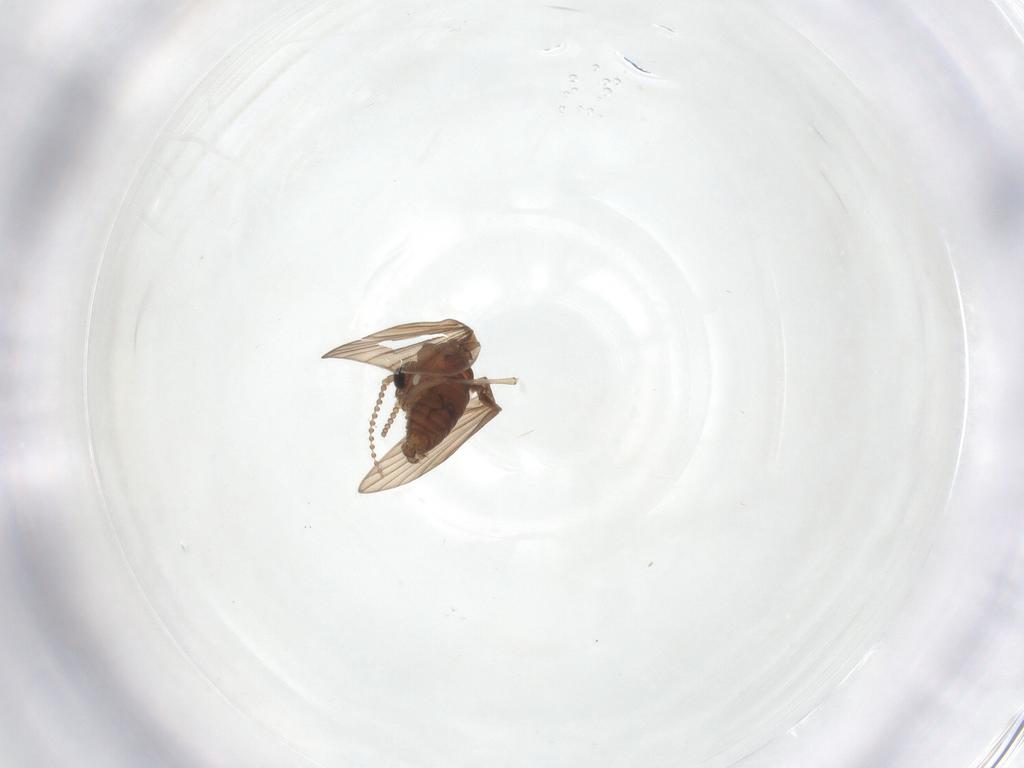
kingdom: Animalia
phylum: Arthropoda
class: Insecta
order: Diptera
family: Psychodidae
